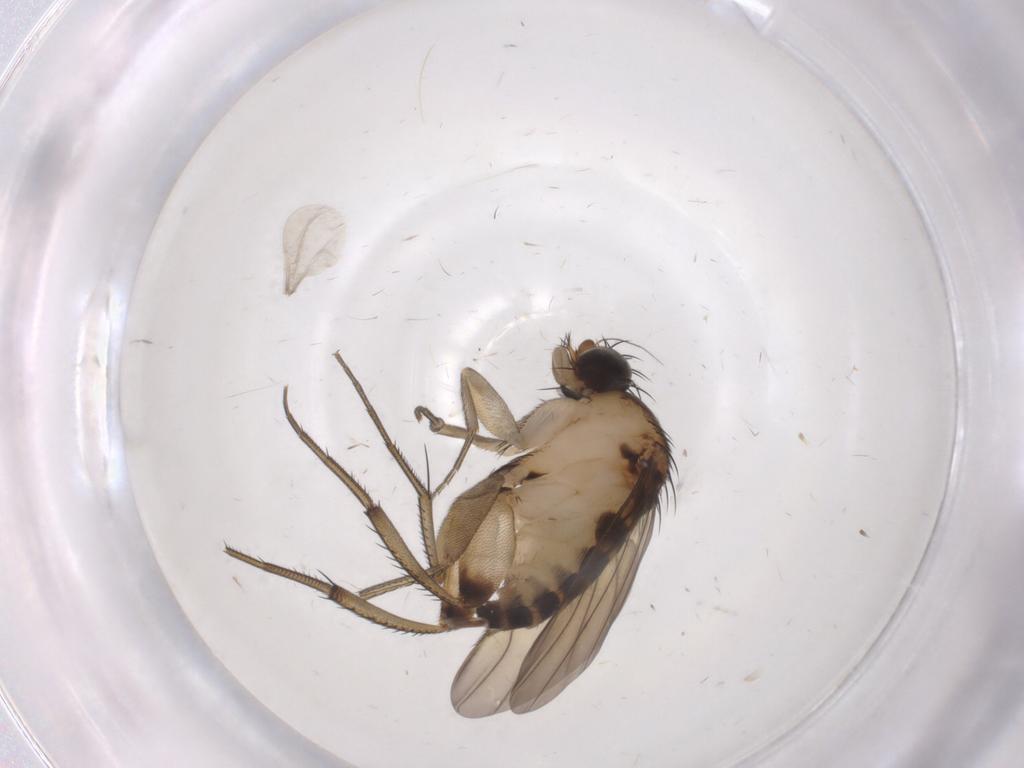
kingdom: Animalia
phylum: Arthropoda
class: Insecta
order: Diptera
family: Phoridae
